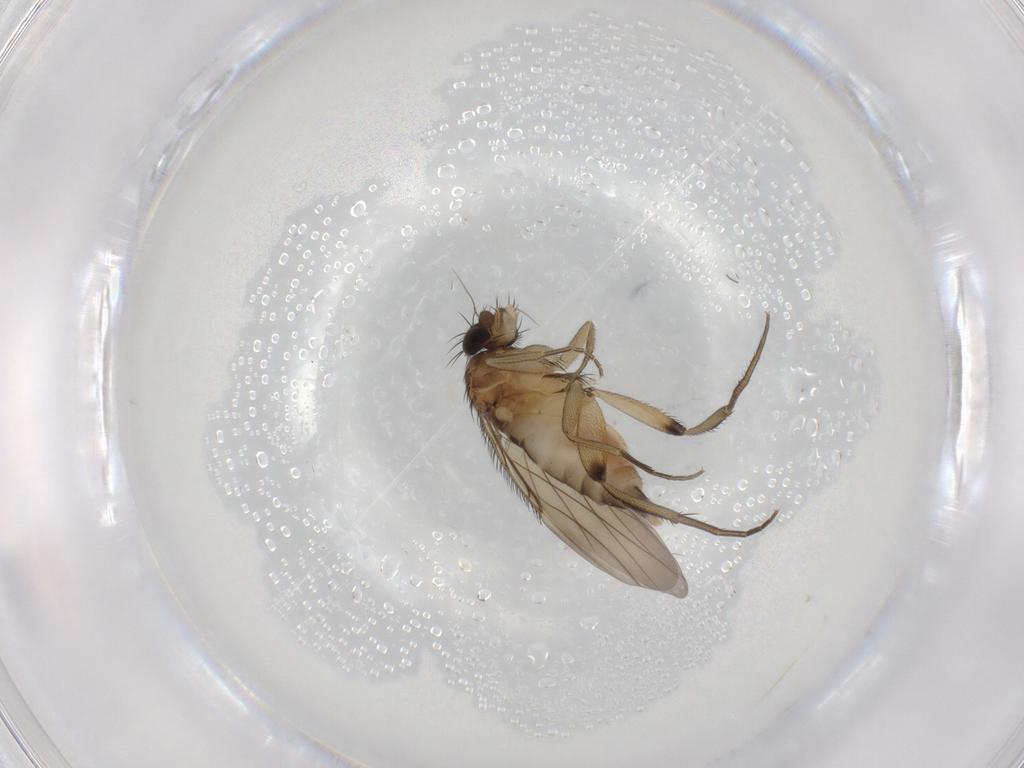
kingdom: Animalia
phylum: Arthropoda
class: Insecta
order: Diptera
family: Phoridae
